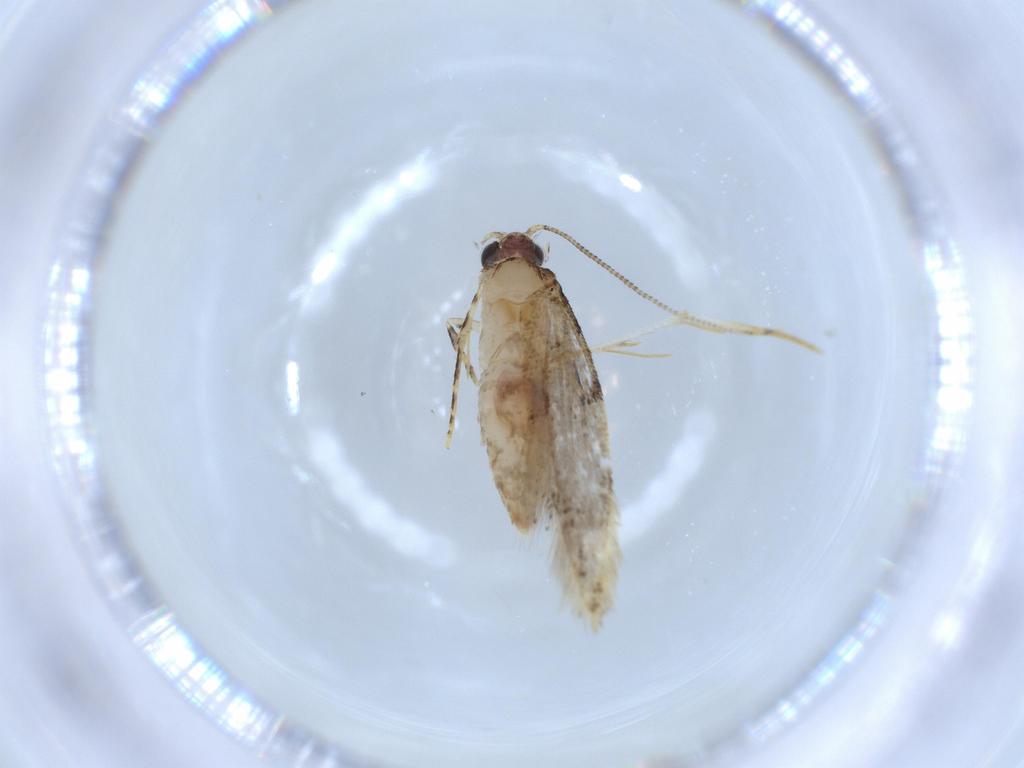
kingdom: Animalia
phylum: Arthropoda
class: Insecta
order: Lepidoptera
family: Tineidae
